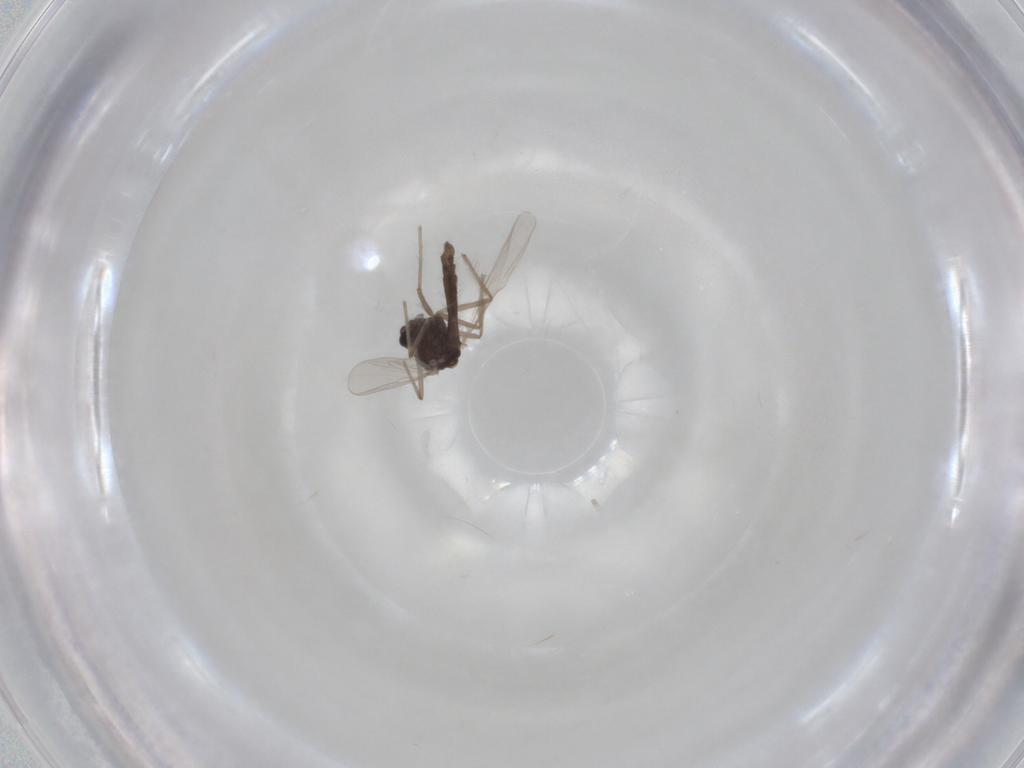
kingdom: Animalia
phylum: Arthropoda
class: Insecta
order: Diptera
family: Chironomidae
